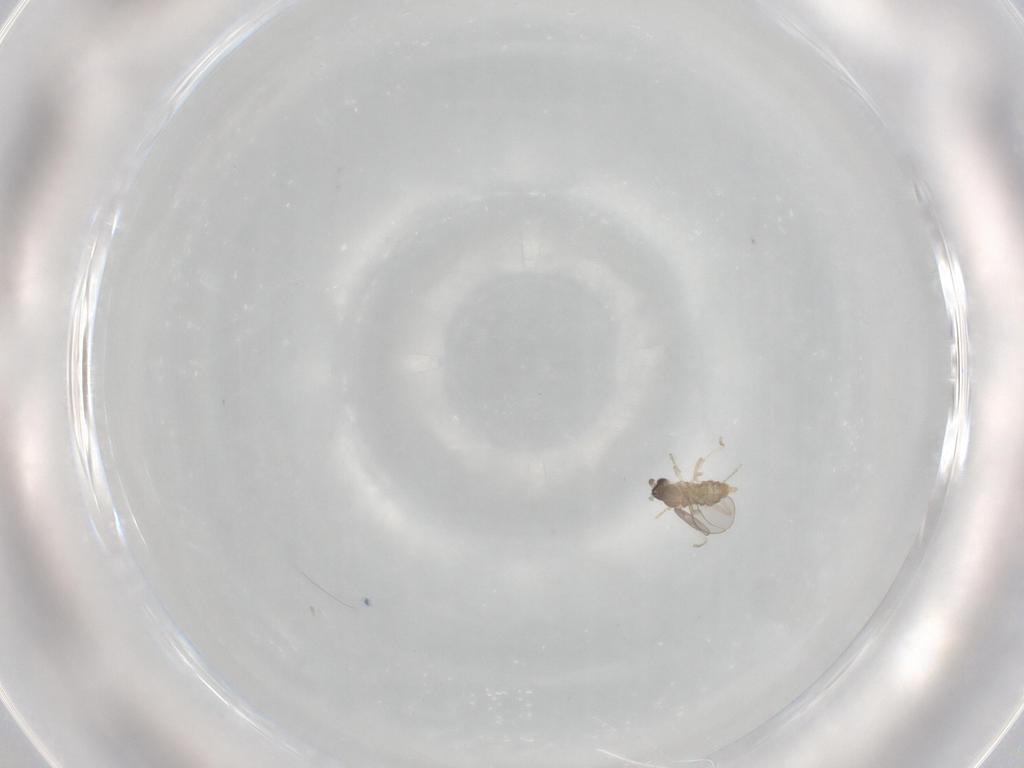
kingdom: Animalia
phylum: Arthropoda
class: Insecta
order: Diptera
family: Cecidomyiidae
